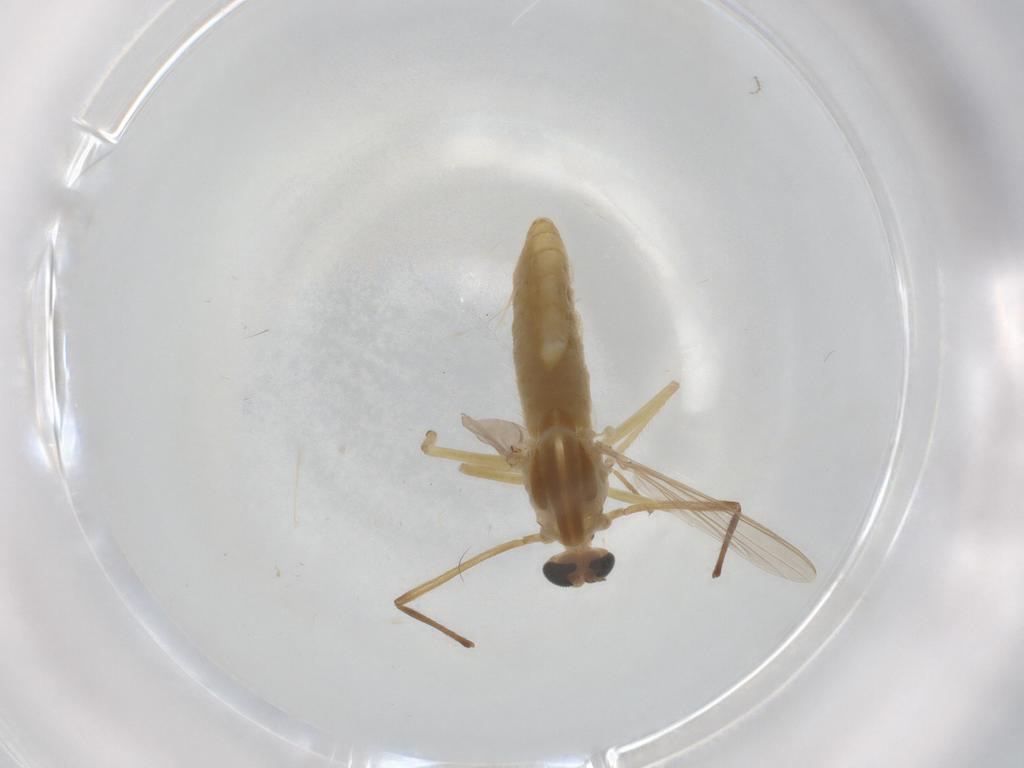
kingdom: Animalia
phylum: Arthropoda
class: Insecta
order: Diptera
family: Chironomidae
